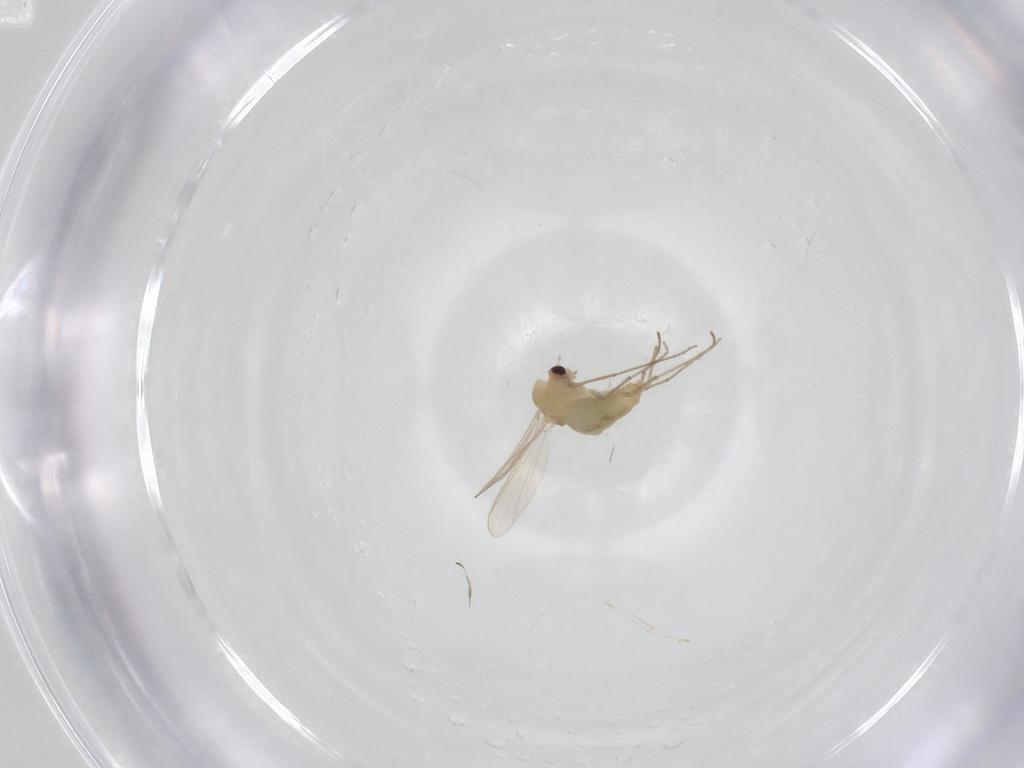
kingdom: Animalia
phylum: Arthropoda
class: Insecta
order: Diptera
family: Cecidomyiidae
